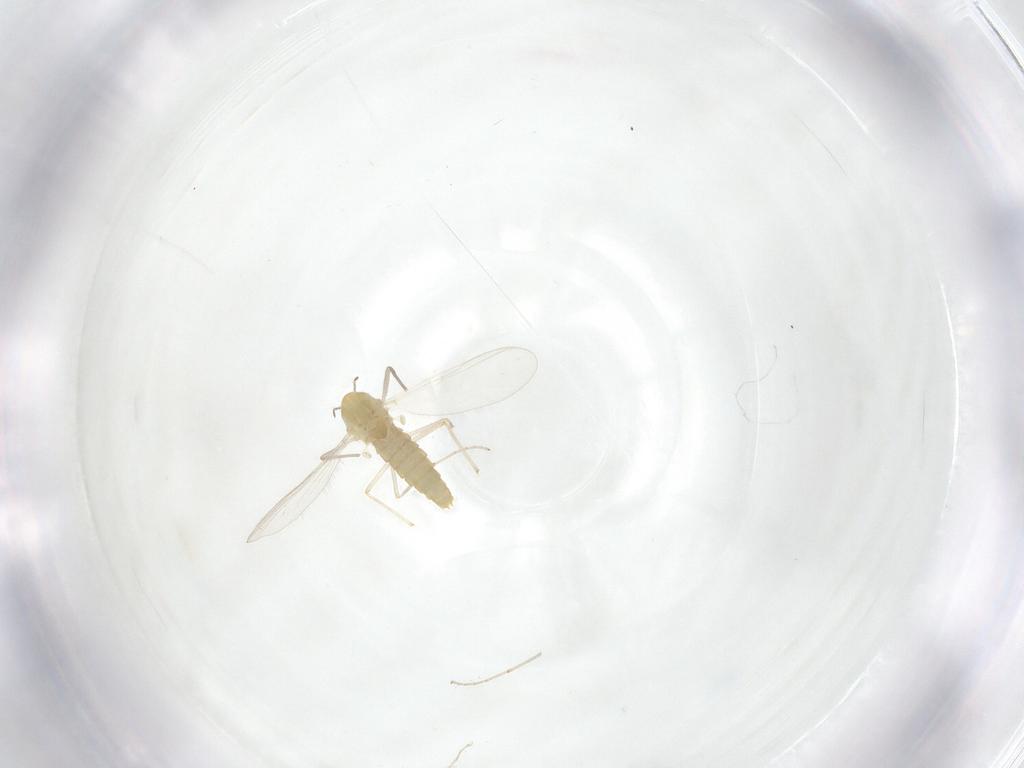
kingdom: Animalia
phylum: Arthropoda
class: Insecta
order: Diptera
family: Chironomidae
